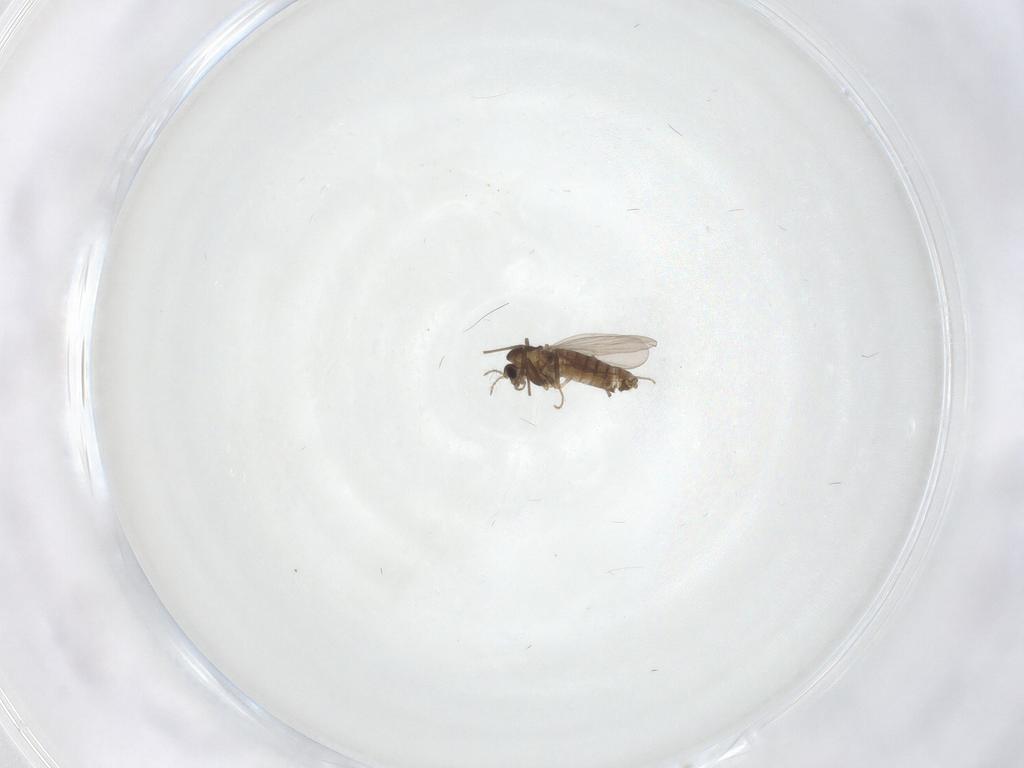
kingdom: Animalia
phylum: Arthropoda
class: Insecta
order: Diptera
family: Chironomidae
